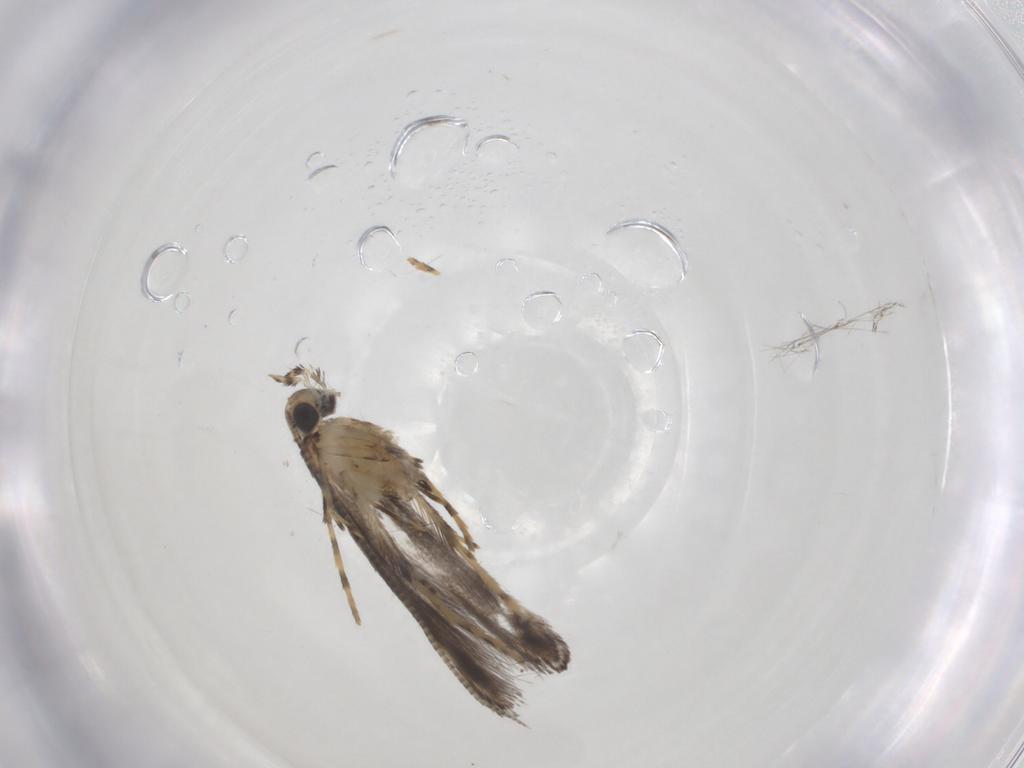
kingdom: Animalia
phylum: Arthropoda
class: Insecta
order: Lepidoptera
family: Gracillariidae
